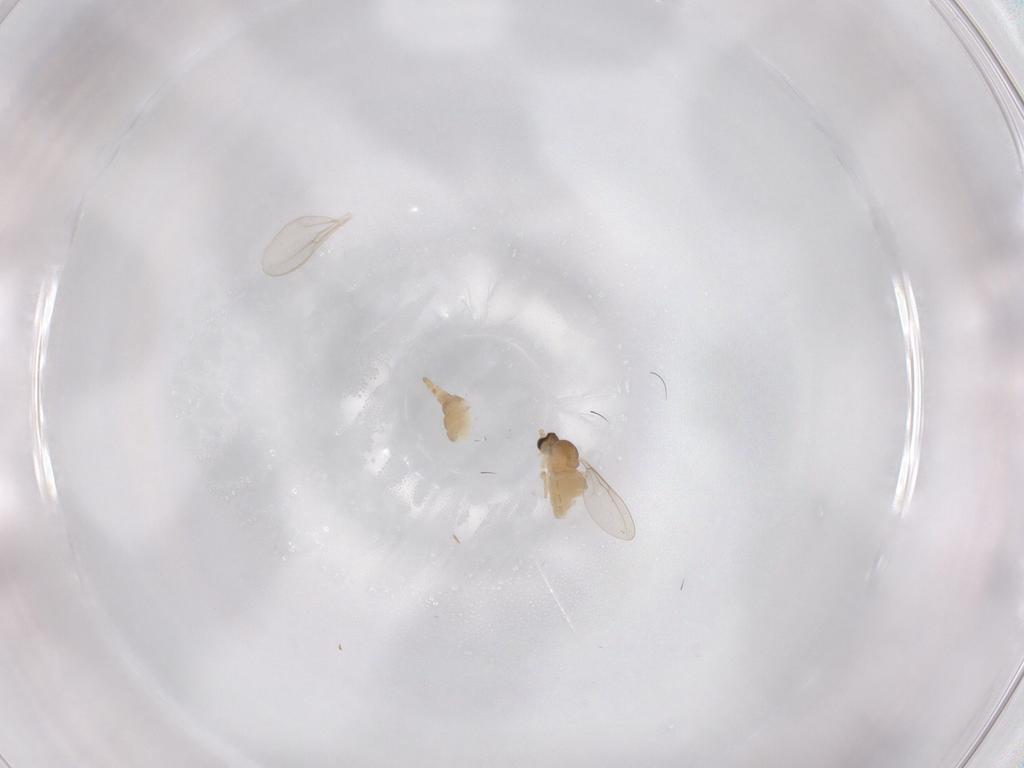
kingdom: Animalia
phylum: Arthropoda
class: Insecta
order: Diptera
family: Cecidomyiidae
